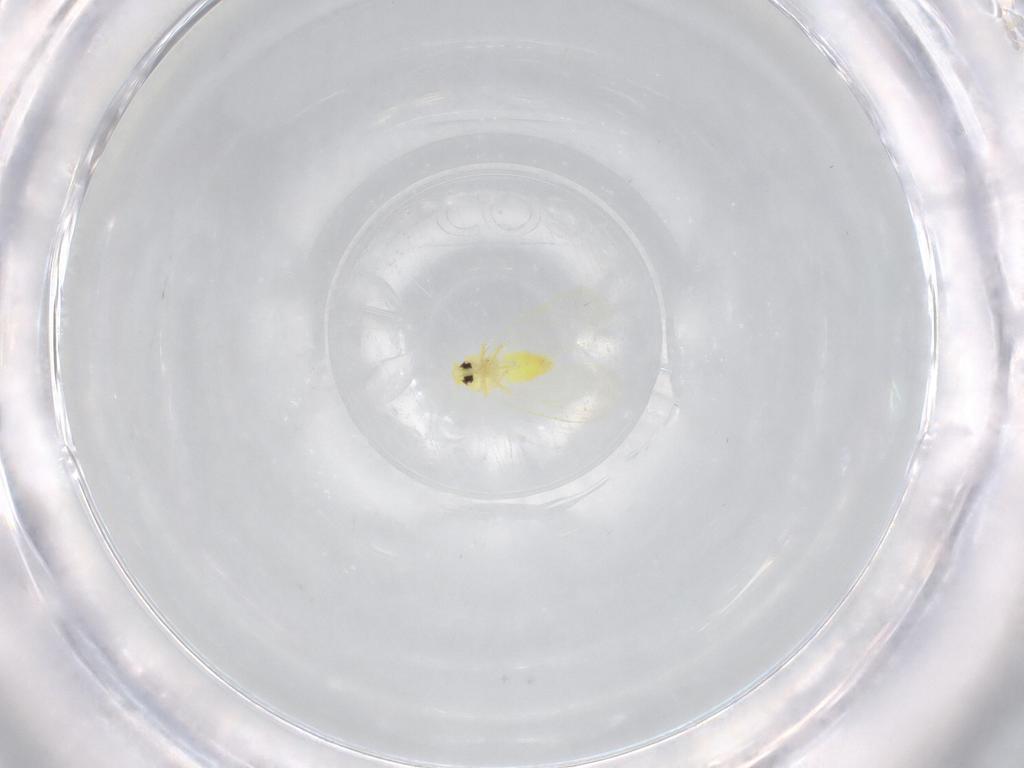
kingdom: Animalia
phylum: Arthropoda
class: Insecta
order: Hemiptera
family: Aleyrodidae
